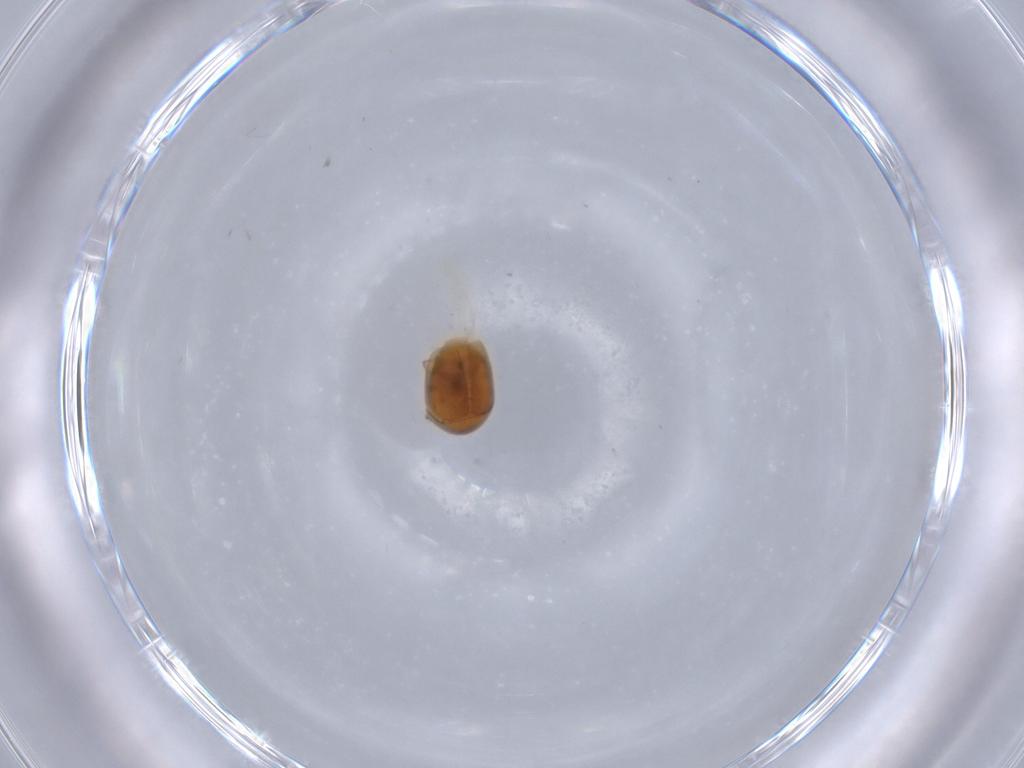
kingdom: Animalia
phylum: Arthropoda
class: Insecta
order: Coleoptera
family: Corylophidae
